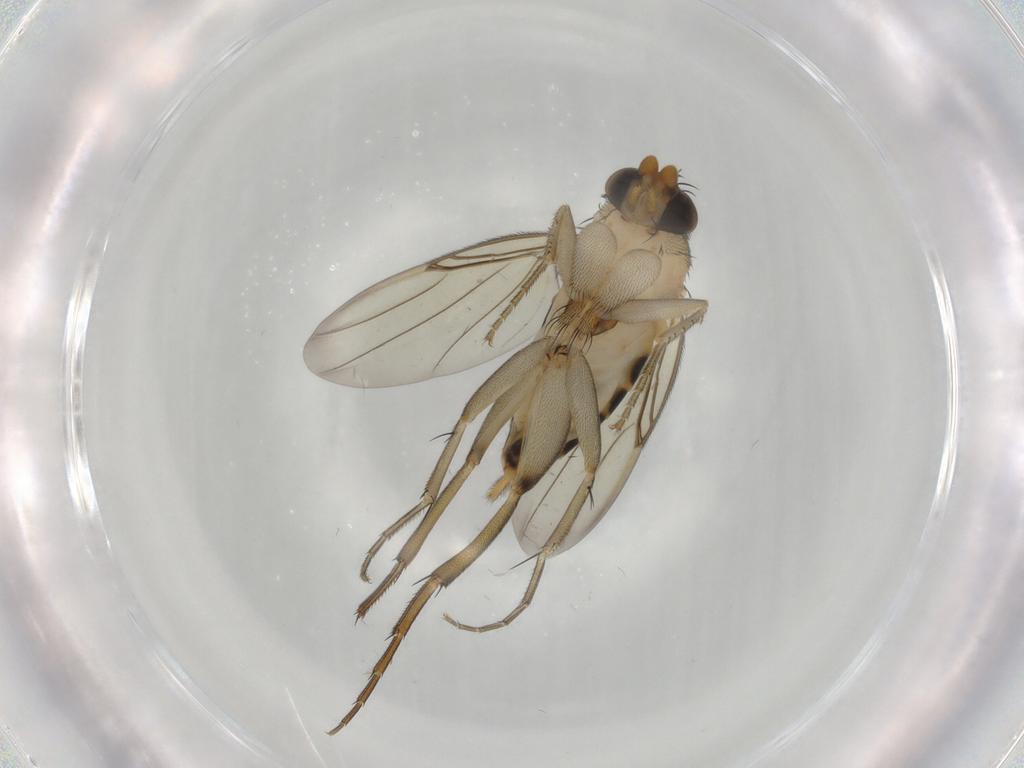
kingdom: Animalia
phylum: Arthropoda
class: Insecta
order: Diptera
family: Phoridae
